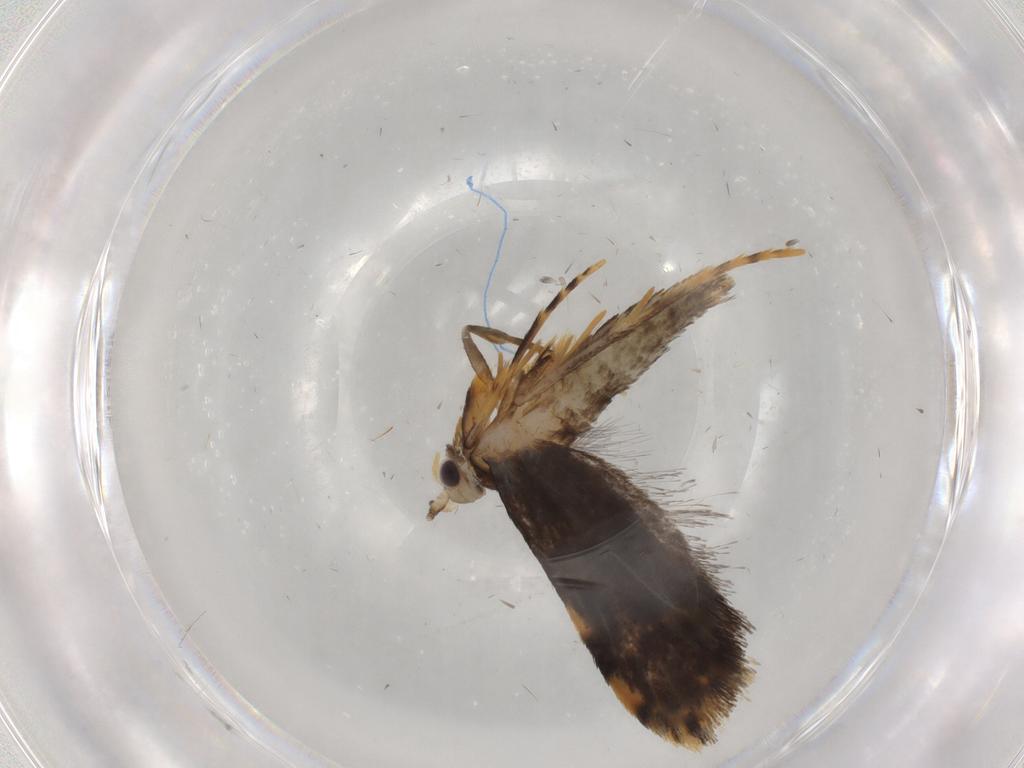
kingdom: Animalia
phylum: Arthropoda
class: Insecta
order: Lepidoptera
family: Tineidae
